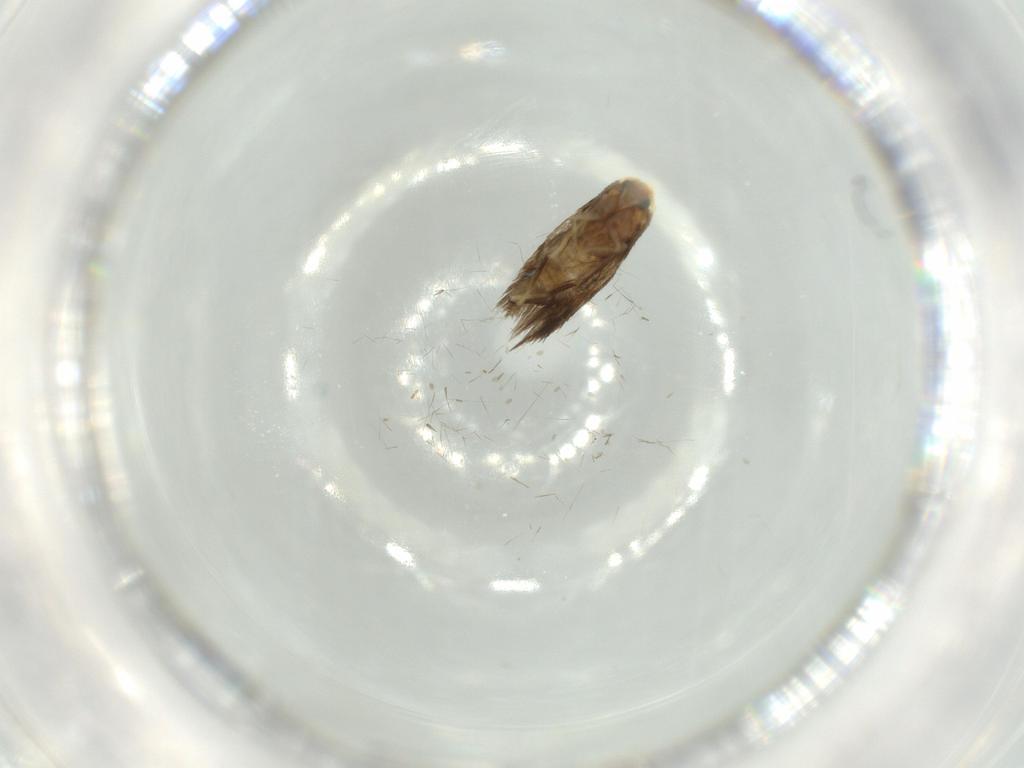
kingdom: Animalia
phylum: Arthropoda
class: Insecta
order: Lepidoptera
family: Nepticulidae
